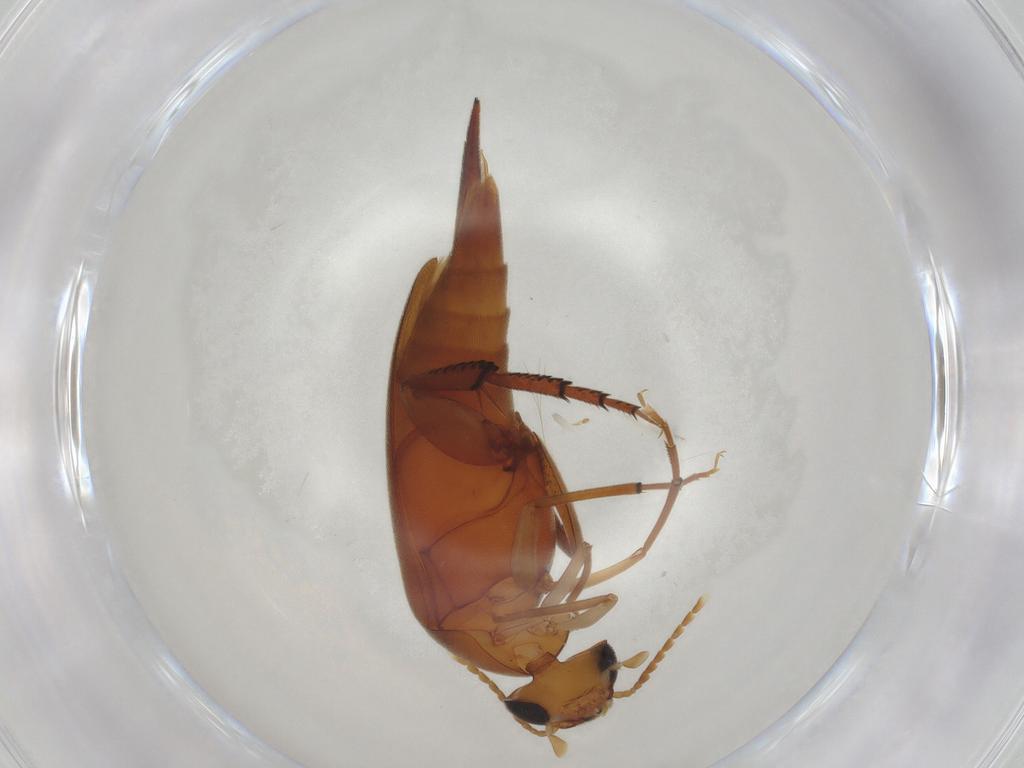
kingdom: Animalia
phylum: Arthropoda
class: Insecta
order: Coleoptera
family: Mordellidae
